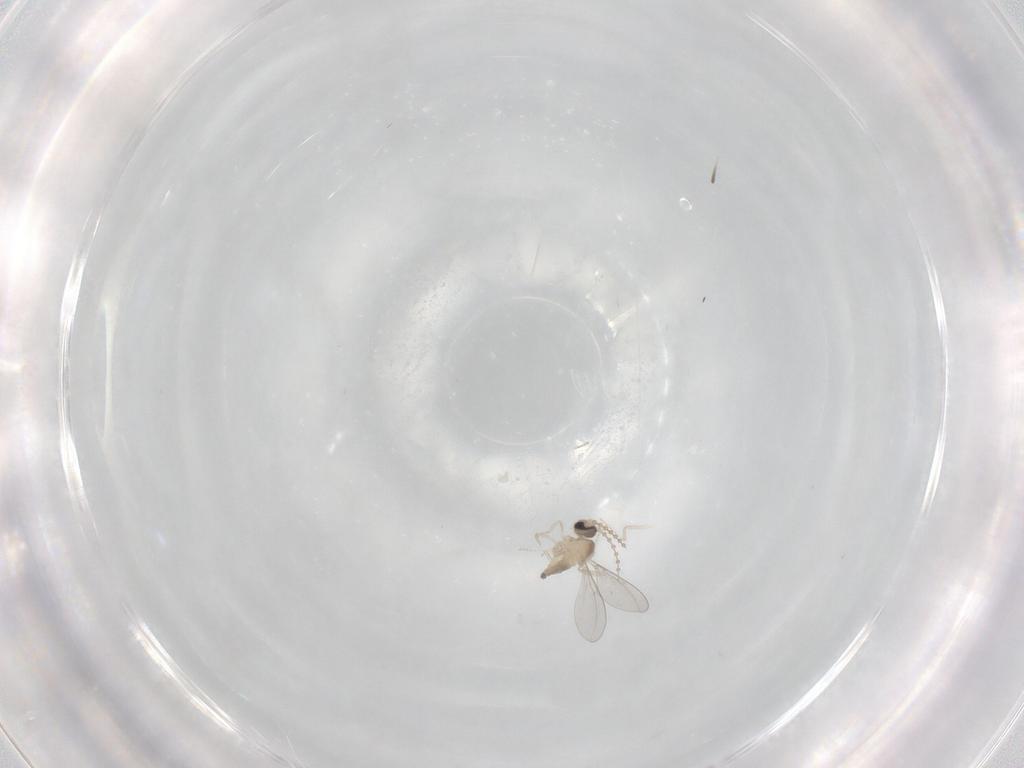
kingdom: Animalia
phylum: Arthropoda
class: Insecta
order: Diptera
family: Cecidomyiidae
